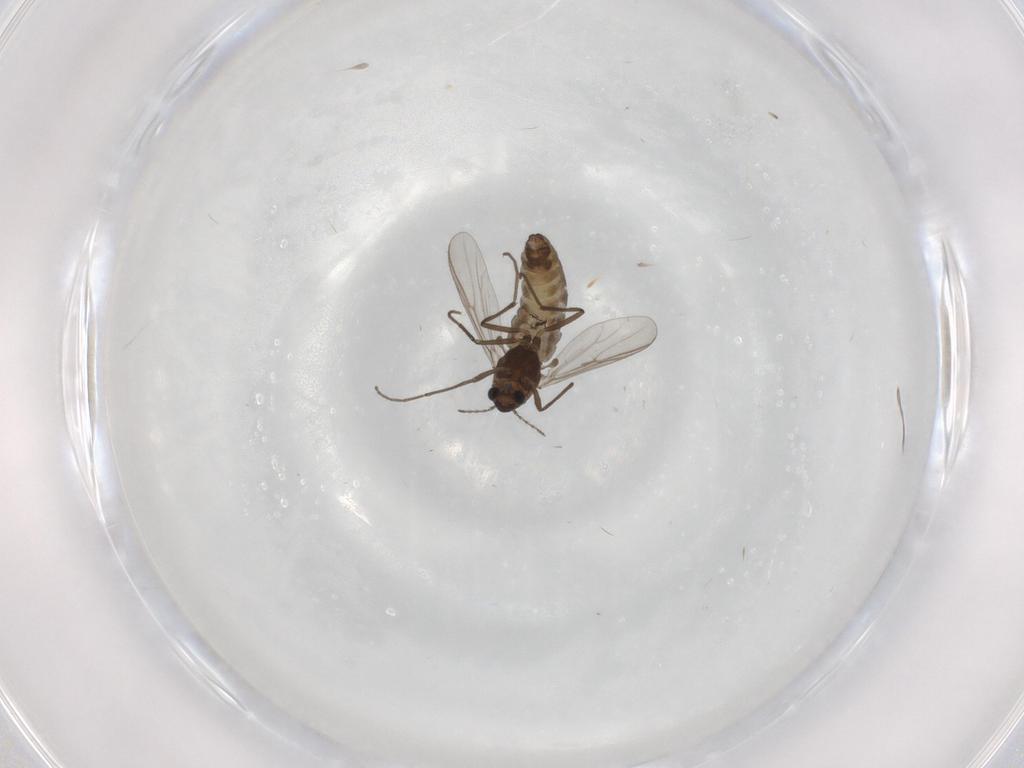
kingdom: Animalia
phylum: Arthropoda
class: Insecta
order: Diptera
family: Chironomidae
